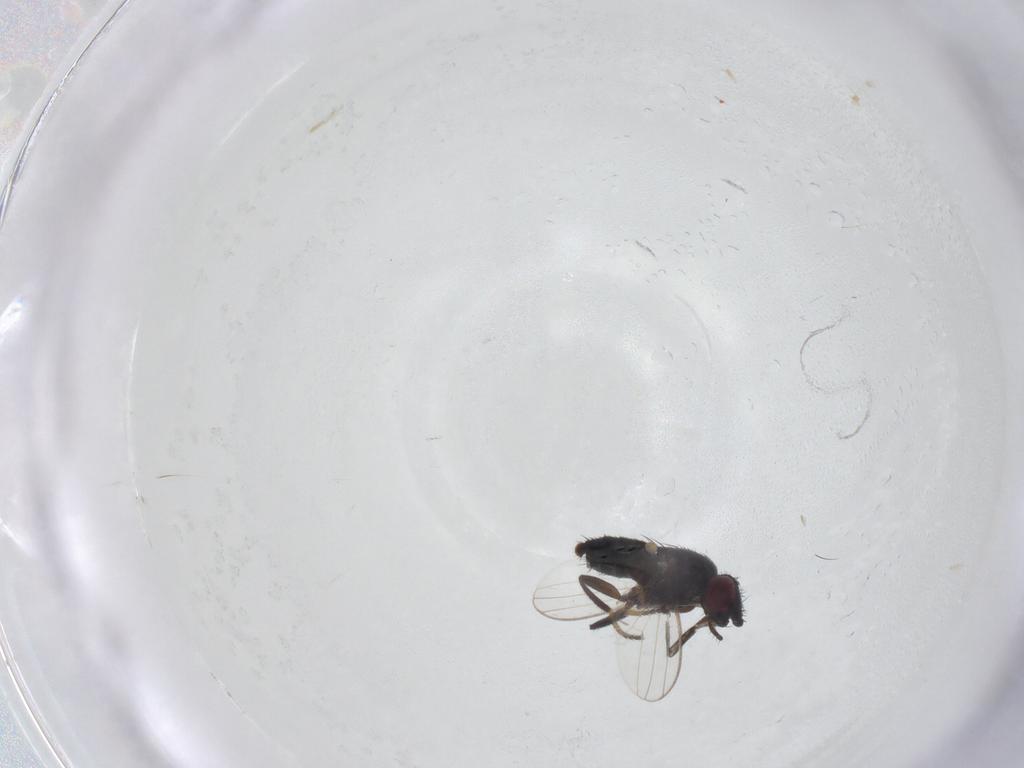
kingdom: Animalia
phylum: Arthropoda
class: Insecta
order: Diptera
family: Milichiidae
